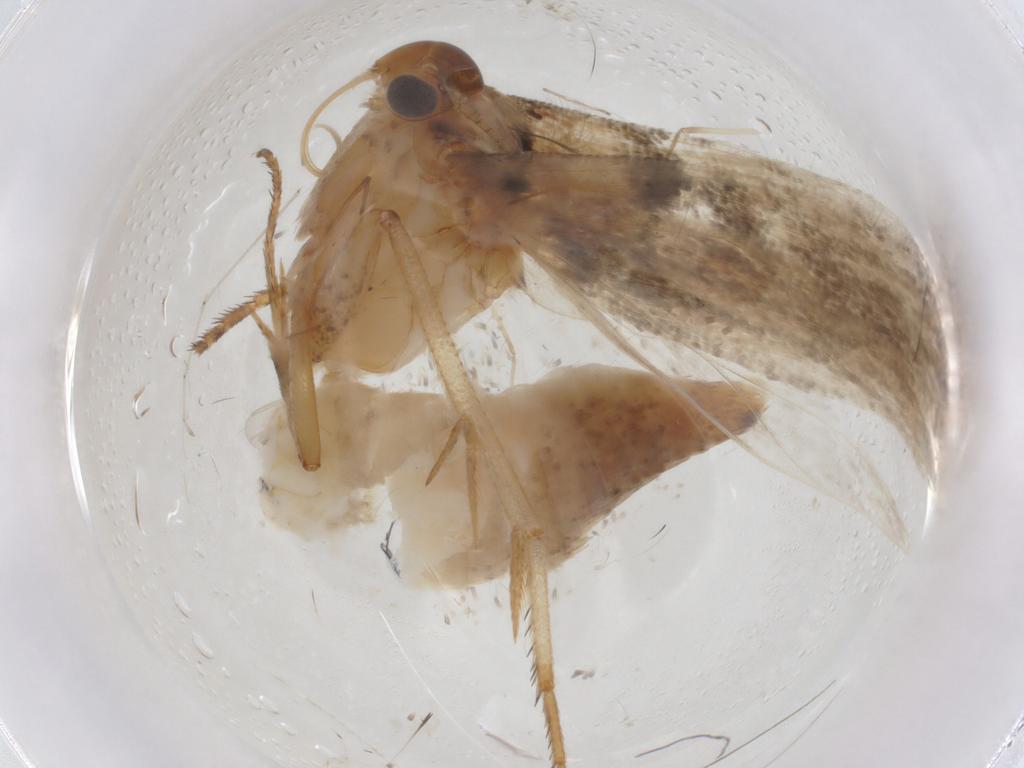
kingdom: Animalia
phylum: Arthropoda
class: Insecta
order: Lepidoptera
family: Gelechiidae
